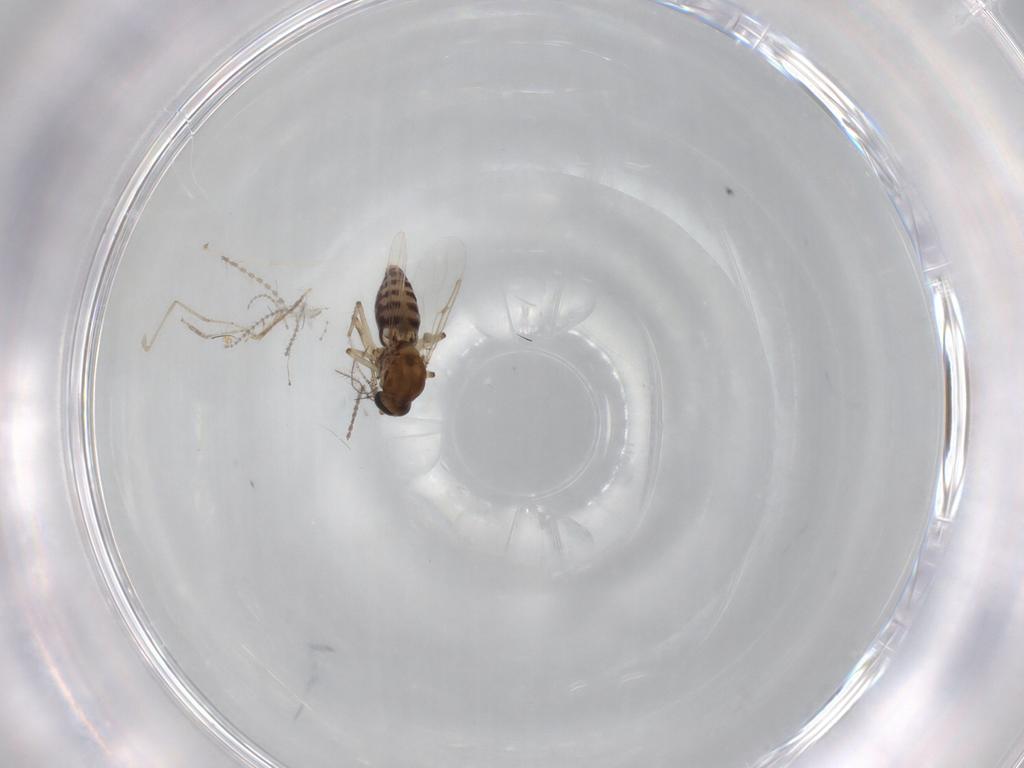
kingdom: Animalia
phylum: Arthropoda
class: Insecta
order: Diptera
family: Ceratopogonidae
